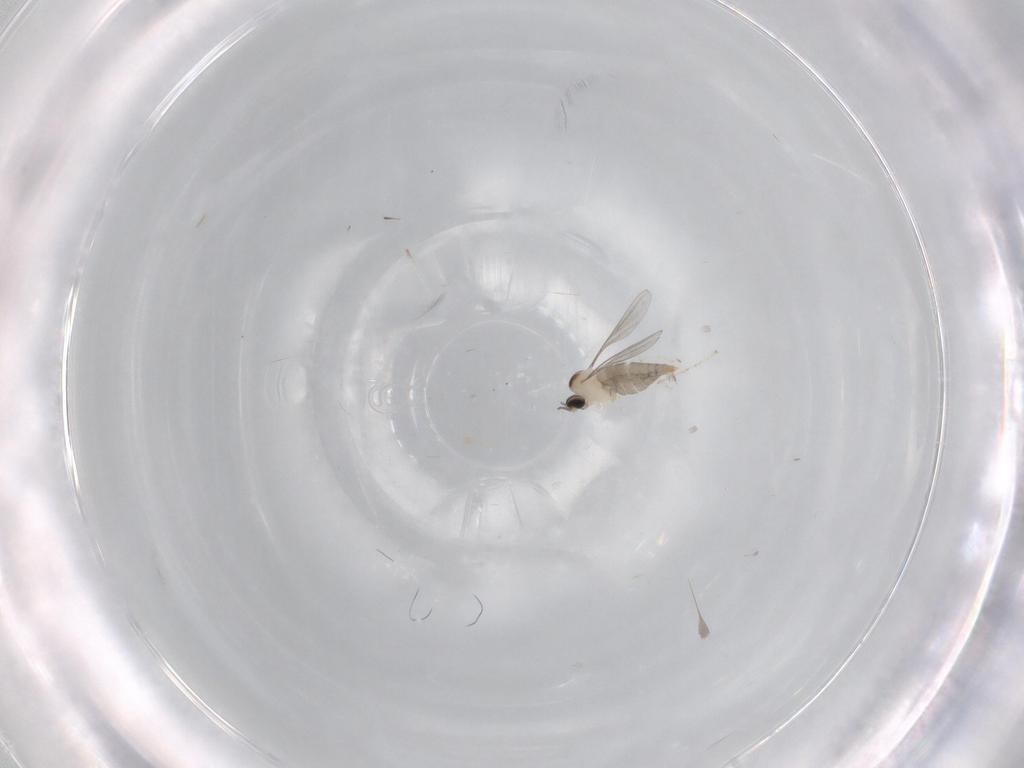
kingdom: Animalia
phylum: Arthropoda
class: Insecta
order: Diptera
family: Cecidomyiidae
